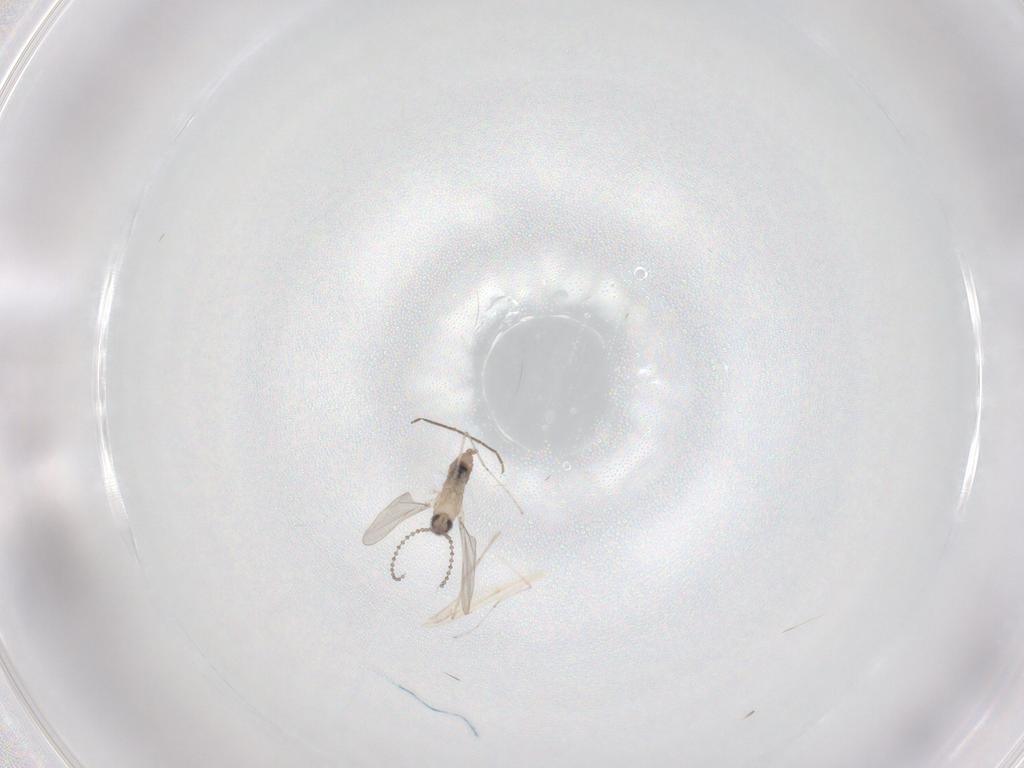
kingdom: Animalia
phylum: Arthropoda
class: Insecta
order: Diptera
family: Chironomidae
